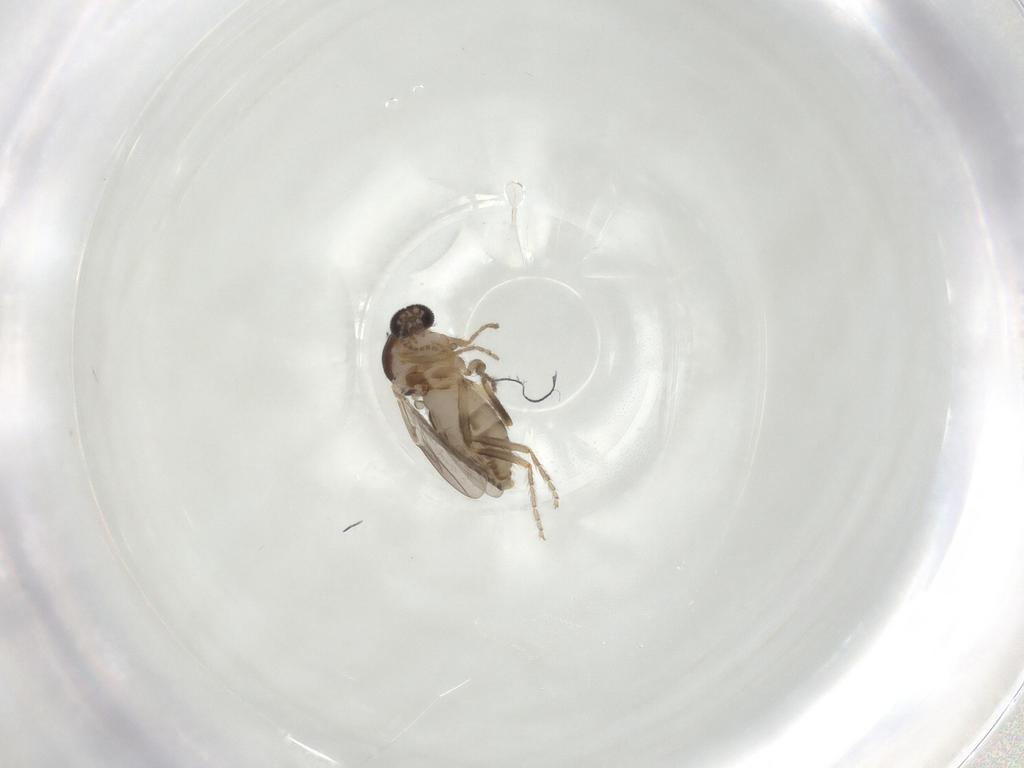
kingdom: Animalia
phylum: Arthropoda
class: Insecta
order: Diptera
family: Ceratopogonidae
